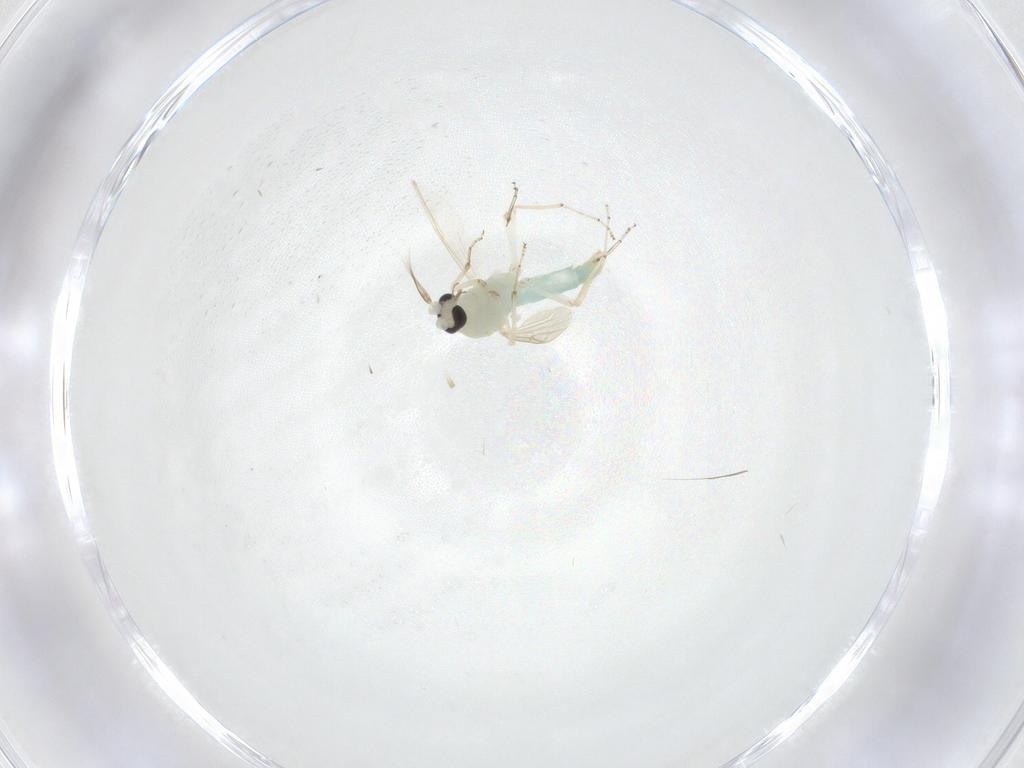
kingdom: Animalia
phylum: Arthropoda
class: Insecta
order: Diptera
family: Ceratopogonidae
